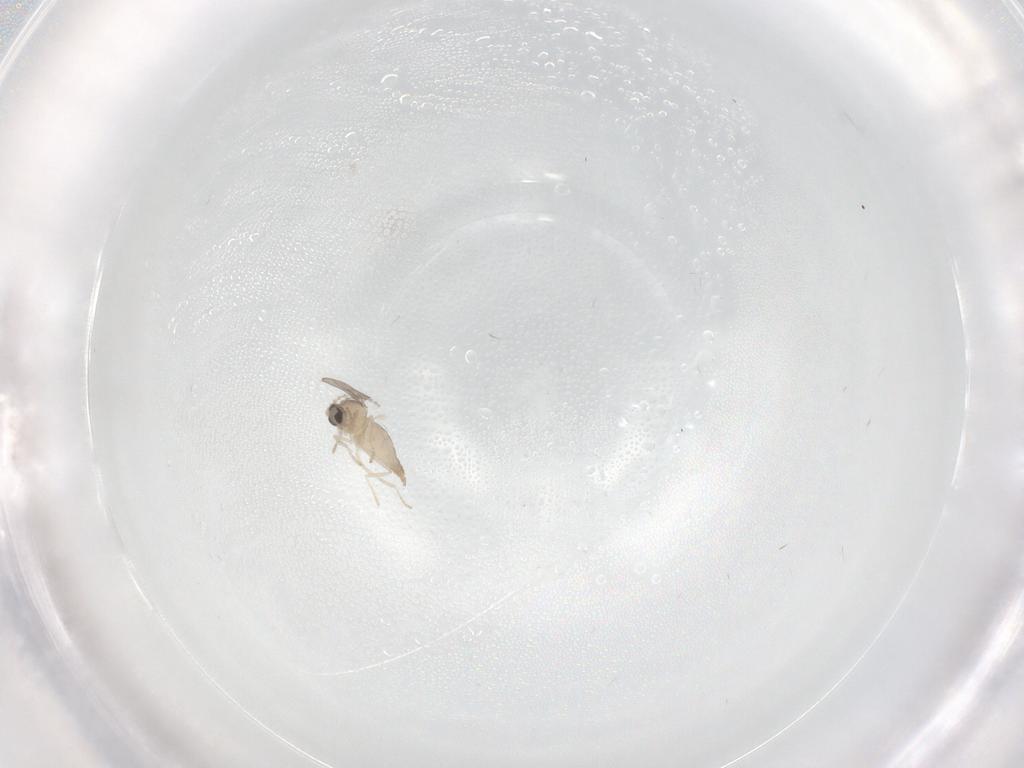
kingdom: Animalia
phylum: Arthropoda
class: Insecta
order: Diptera
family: Cecidomyiidae
